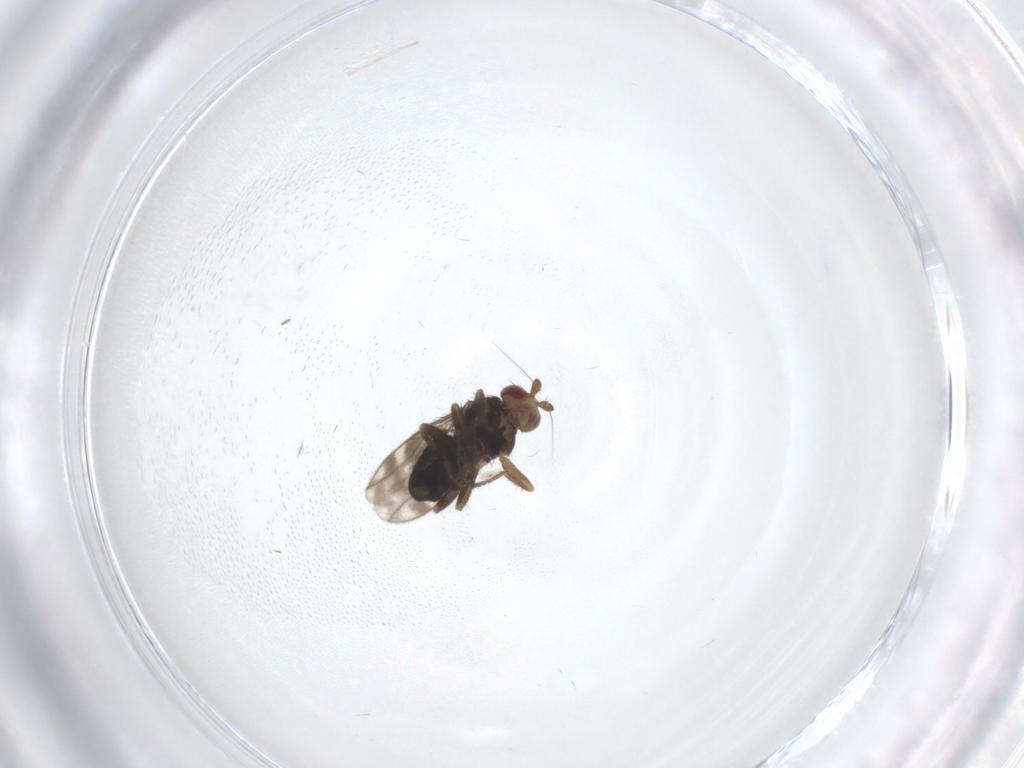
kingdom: Animalia
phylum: Arthropoda
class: Insecta
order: Diptera
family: Sphaeroceridae
